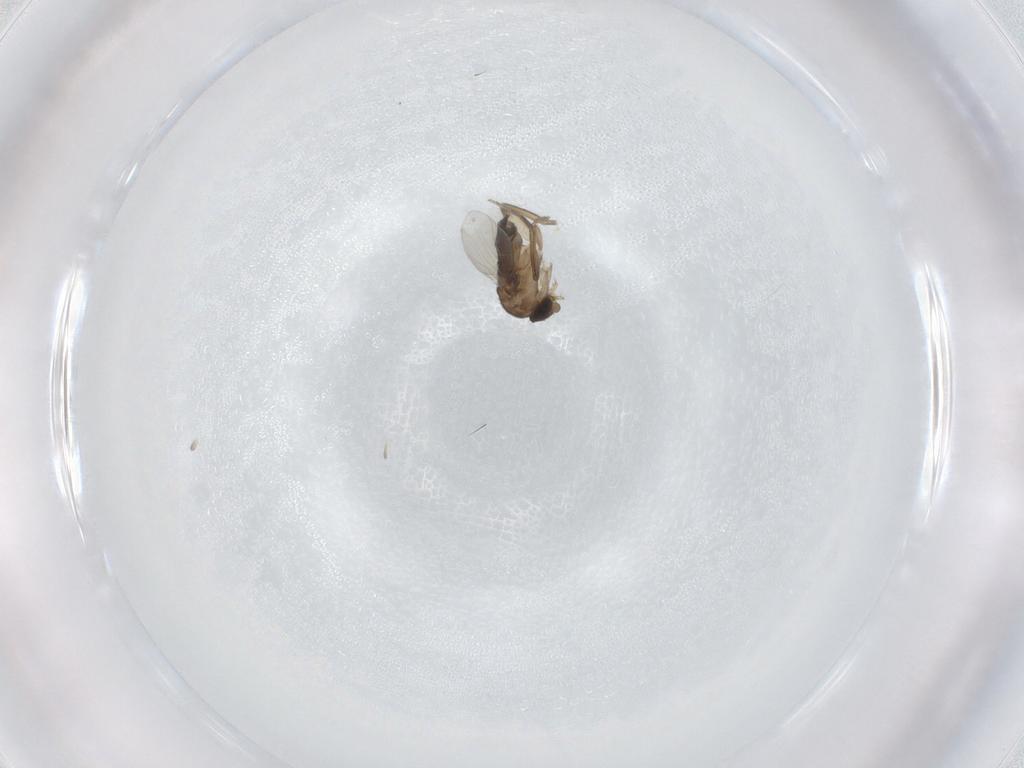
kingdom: Animalia
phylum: Arthropoda
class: Insecta
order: Diptera
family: Phoridae
